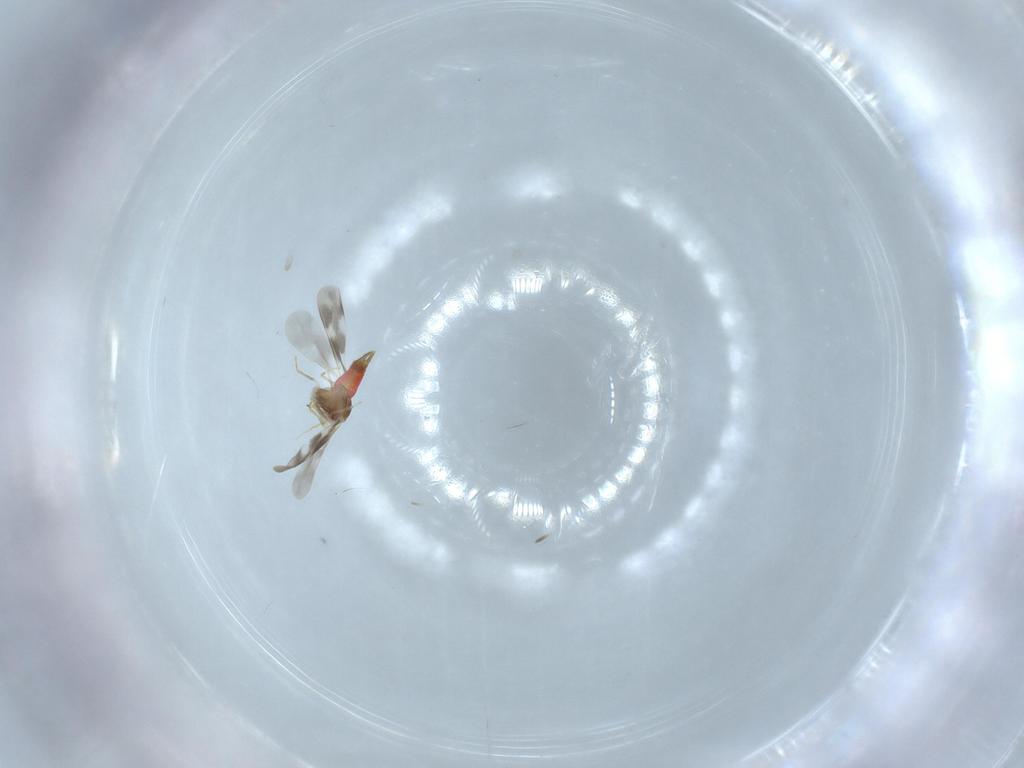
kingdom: Animalia
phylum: Arthropoda
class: Insecta
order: Hemiptera
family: Aleyrodidae
